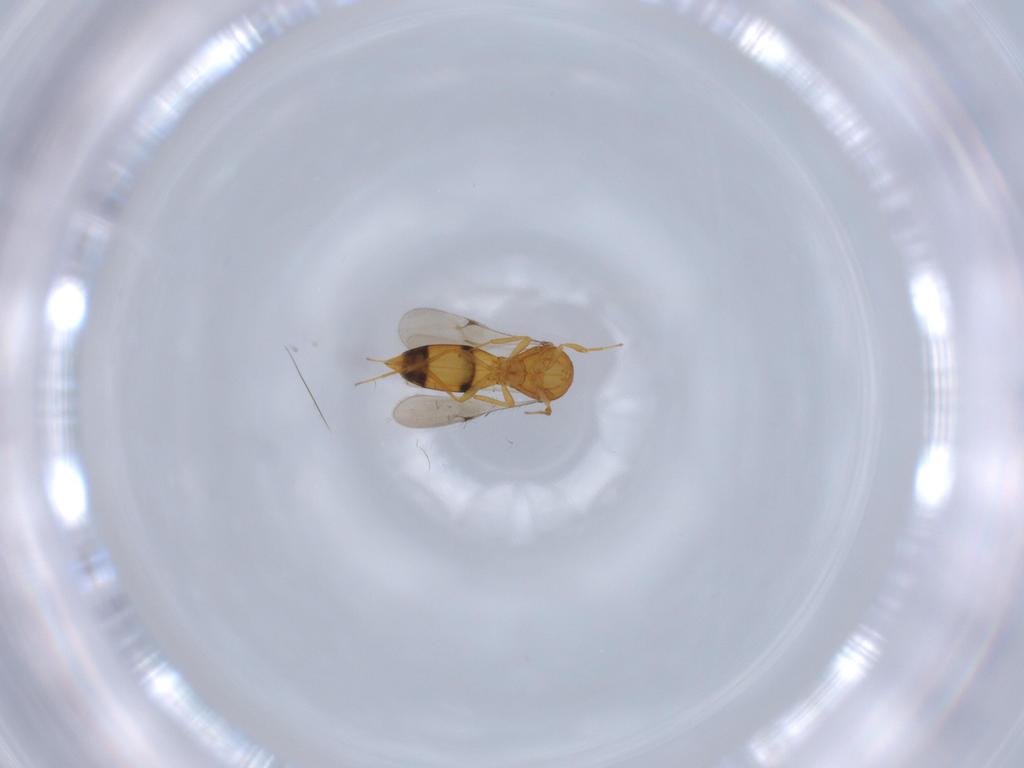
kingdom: Animalia
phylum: Arthropoda
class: Insecta
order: Hymenoptera
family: Scelionidae
